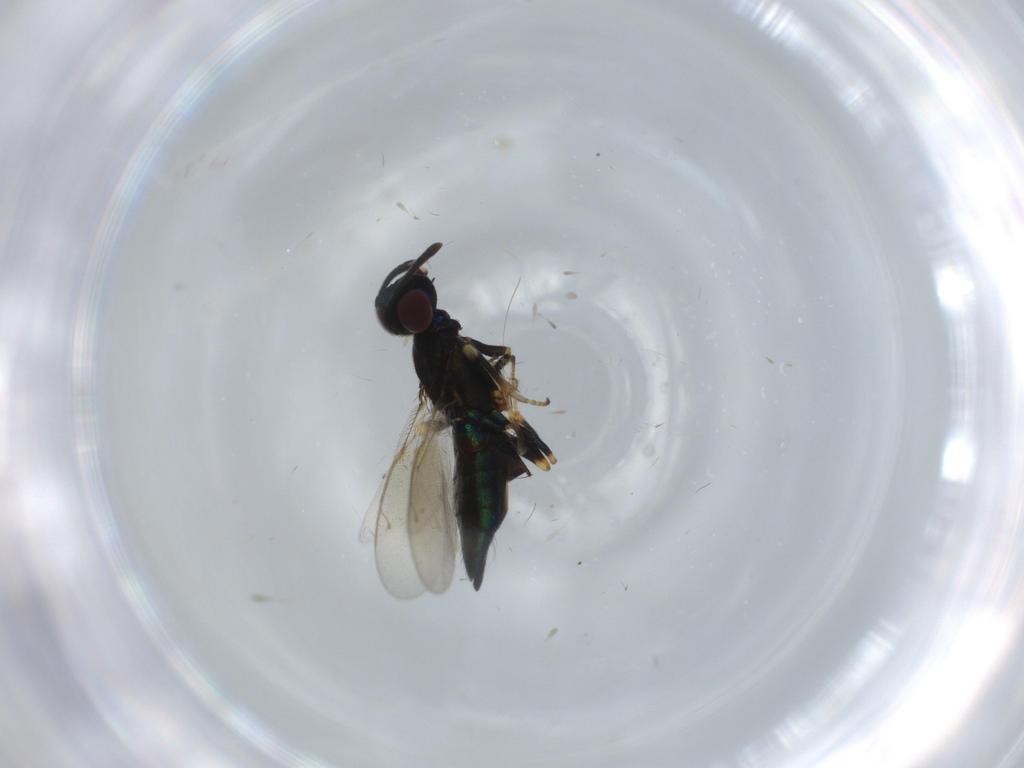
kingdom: Animalia
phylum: Arthropoda
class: Insecta
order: Hymenoptera
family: Eupelmidae
